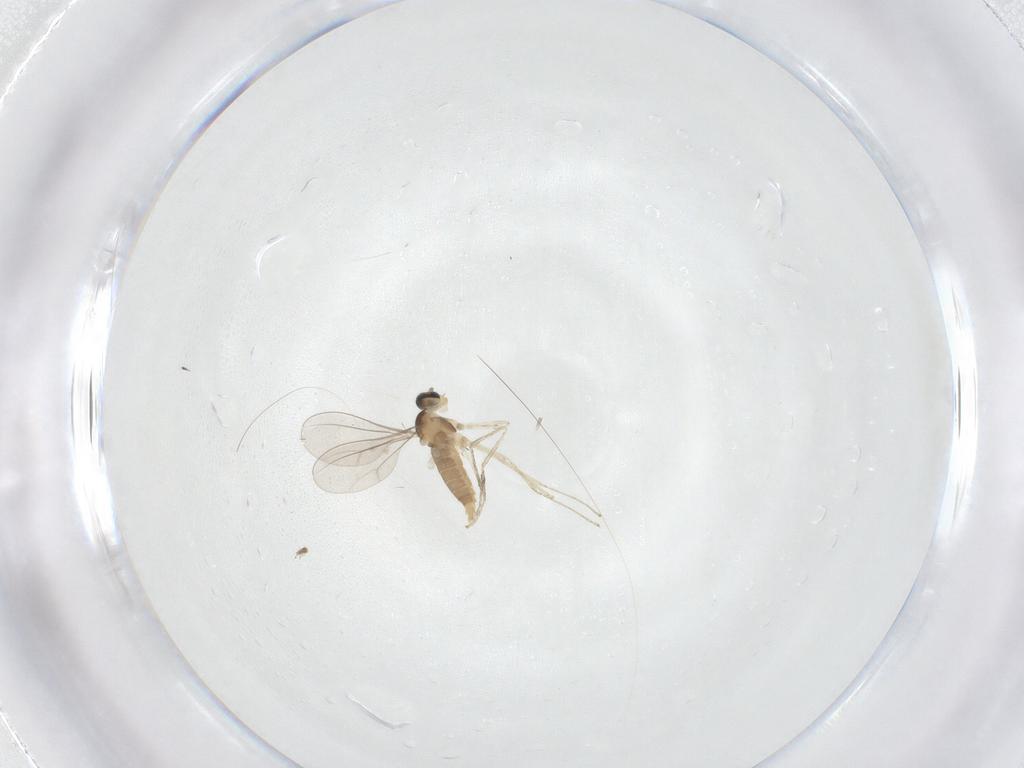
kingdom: Animalia
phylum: Arthropoda
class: Insecta
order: Diptera
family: Cecidomyiidae
